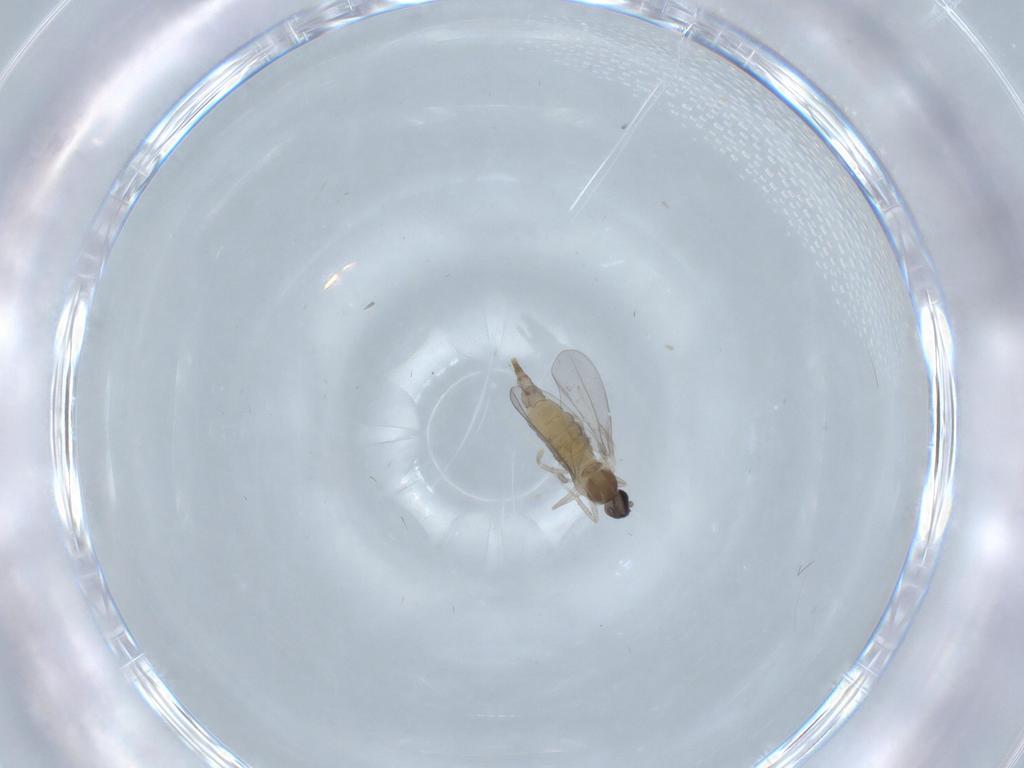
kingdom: Animalia
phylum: Arthropoda
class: Insecta
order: Diptera
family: Cecidomyiidae
